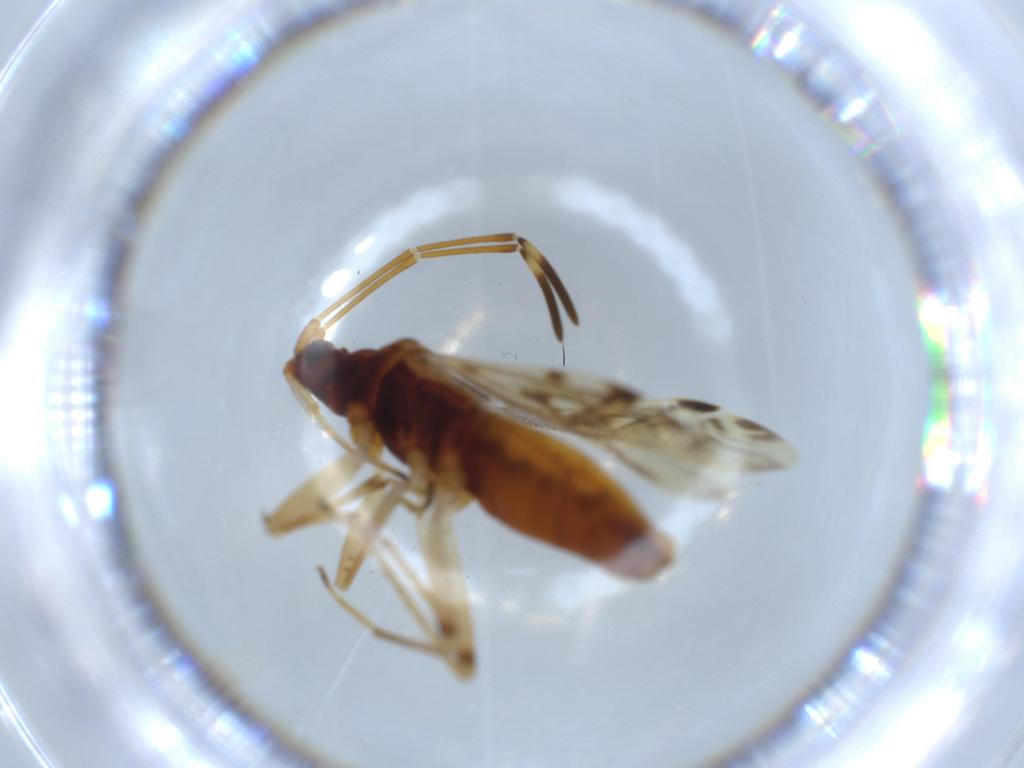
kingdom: Animalia
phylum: Arthropoda
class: Insecta
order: Hemiptera
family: Rhyparochromidae
